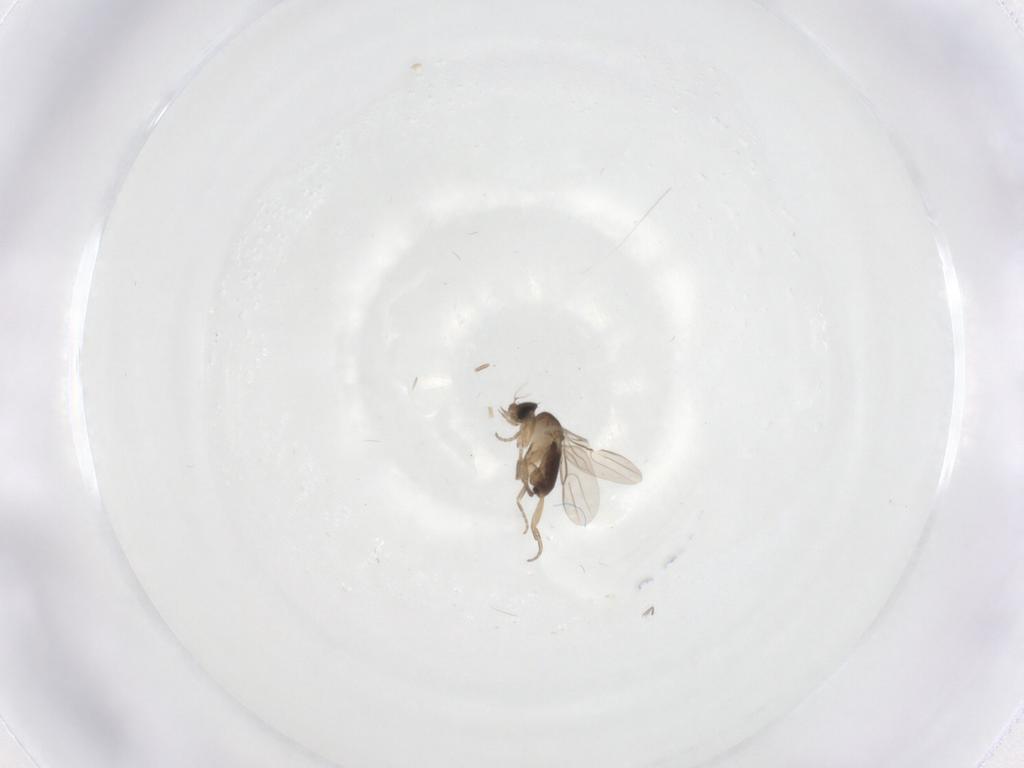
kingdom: Animalia
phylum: Arthropoda
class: Insecta
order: Diptera
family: Phoridae
